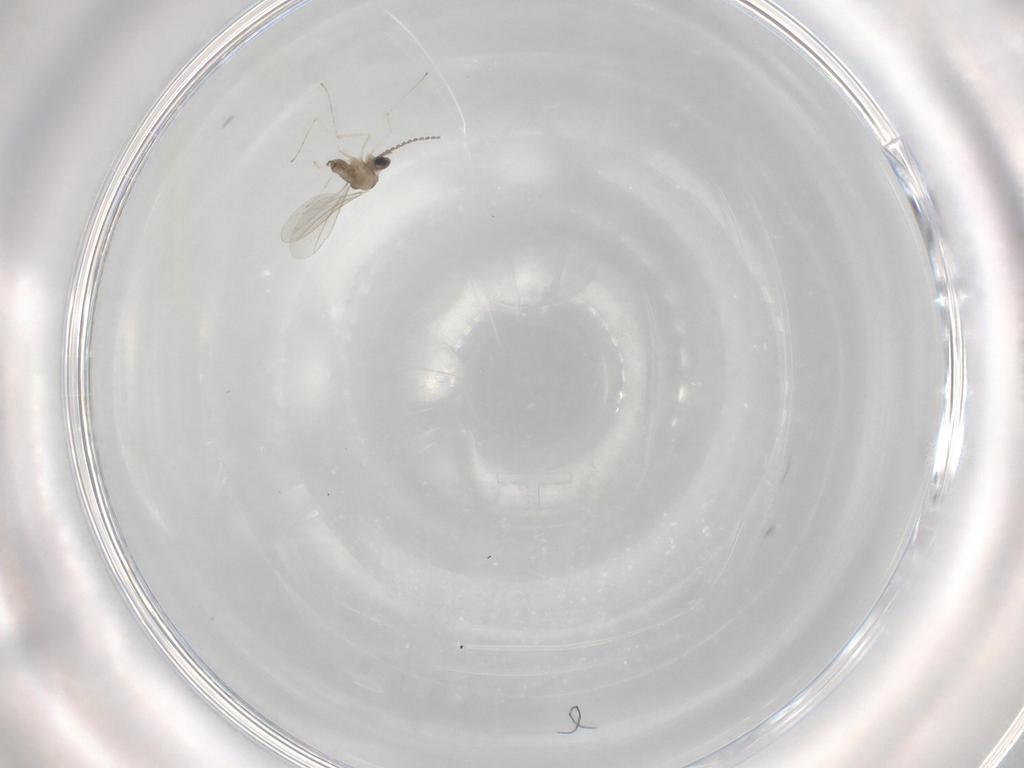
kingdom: Animalia
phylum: Arthropoda
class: Insecta
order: Diptera
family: Cecidomyiidae
